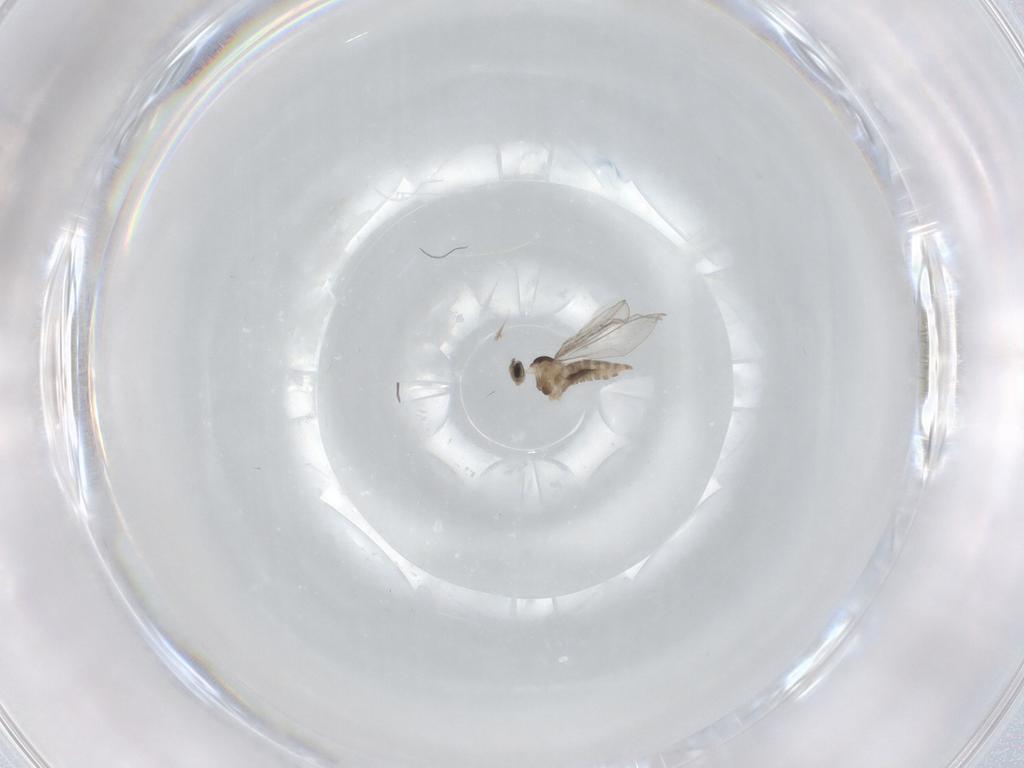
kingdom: Animalia
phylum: Arthropoda
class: Insecta
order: Diptera
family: Cecidomyiidae
